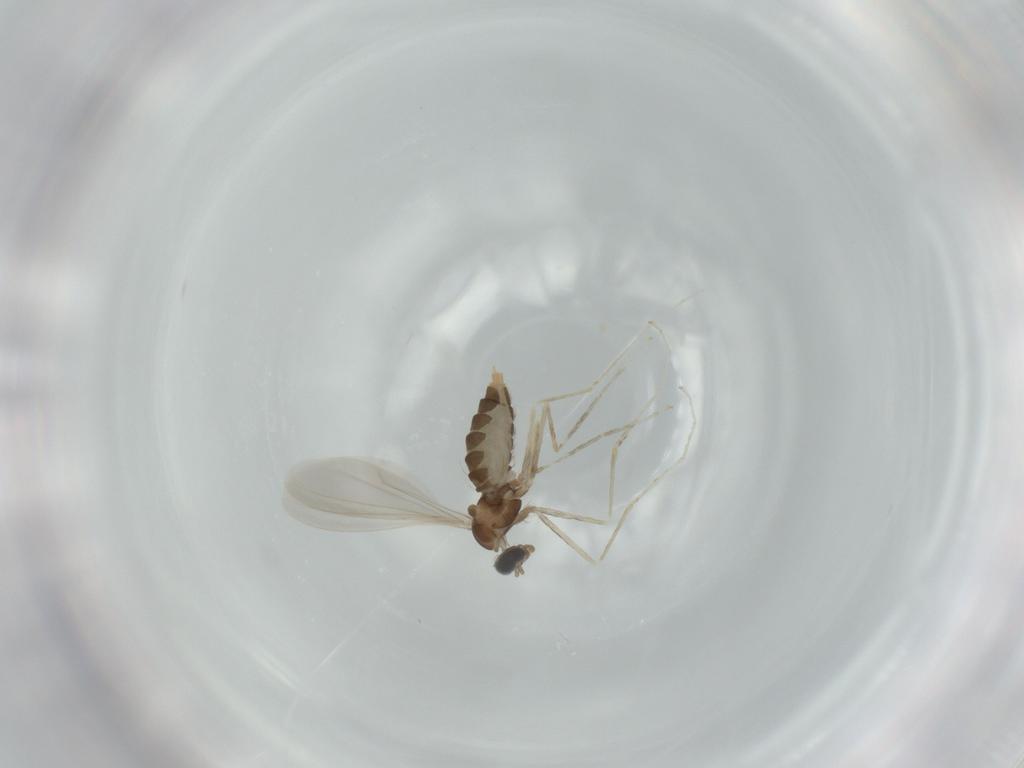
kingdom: Animalia
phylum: Arthropoda
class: Insecta
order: Diptera
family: Cecidomyiidae
